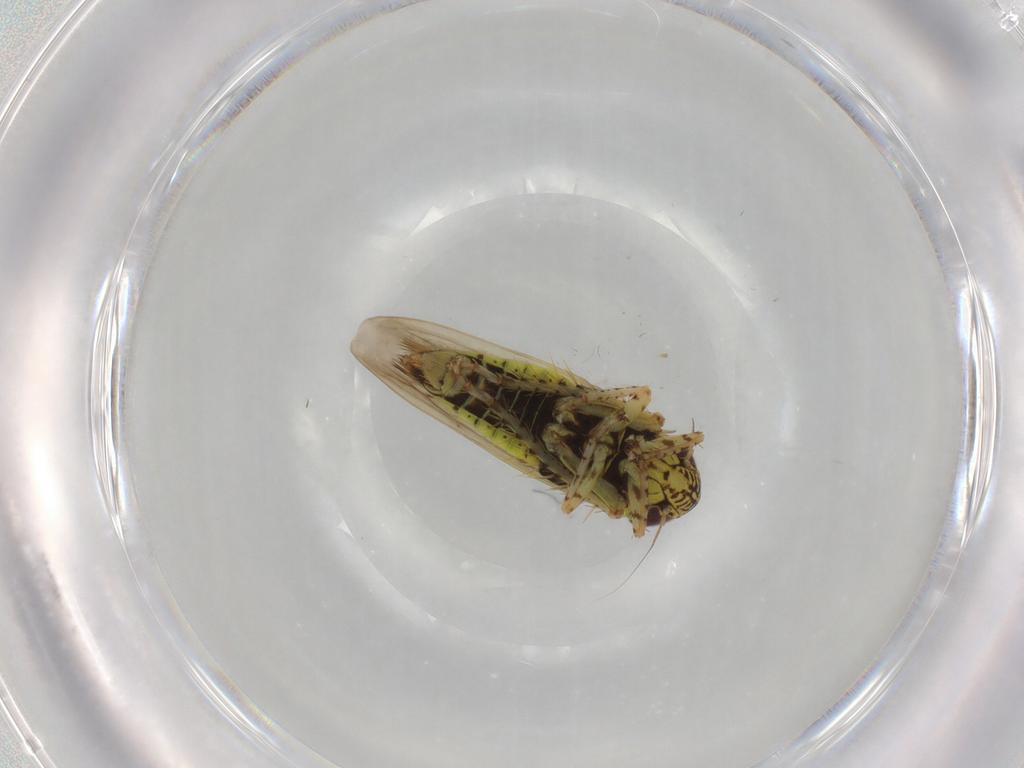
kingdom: Animalia
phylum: Arthropoda
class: Insecta
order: Hemiptera
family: Cicadellidae
